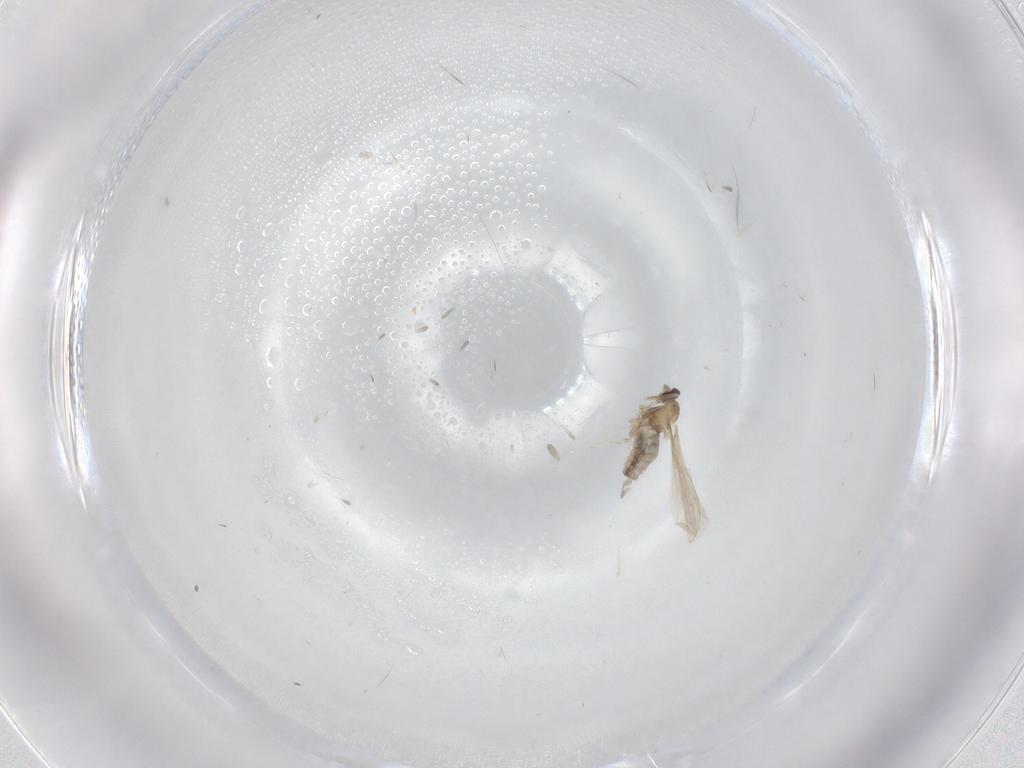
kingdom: Animalia
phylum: Arthropoda
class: Insecta
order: Diptera
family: Cecidomyiidae
